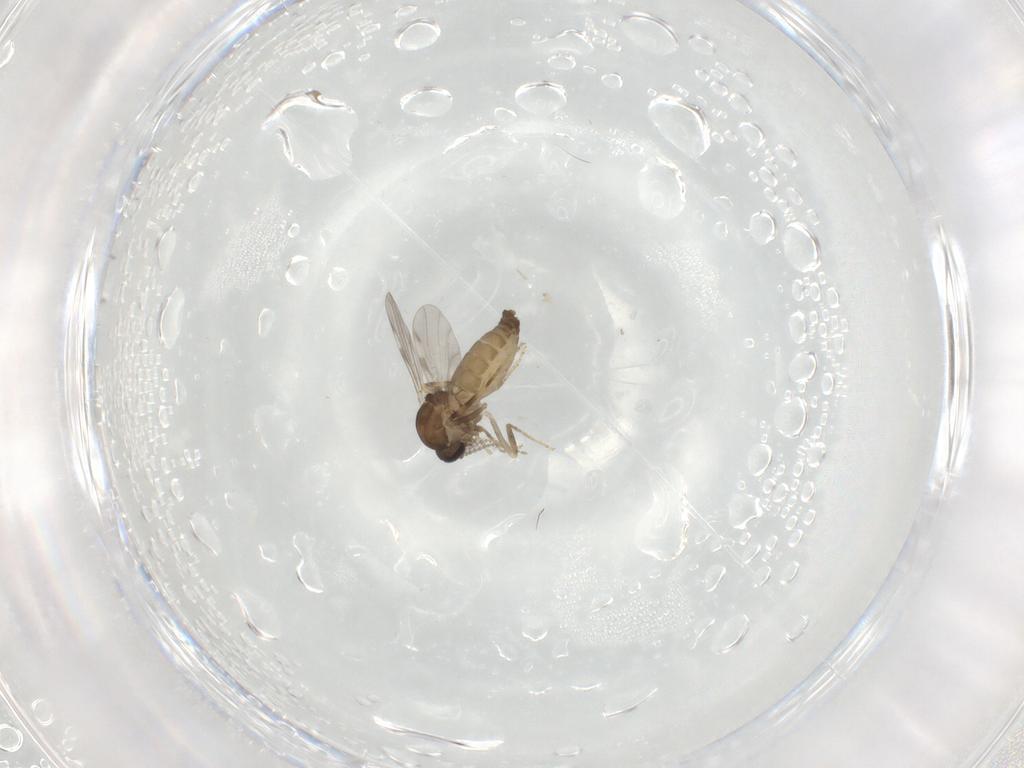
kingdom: Animalia
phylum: Arthropoda
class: Insecta
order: Diptera
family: Ceratopogonidae
